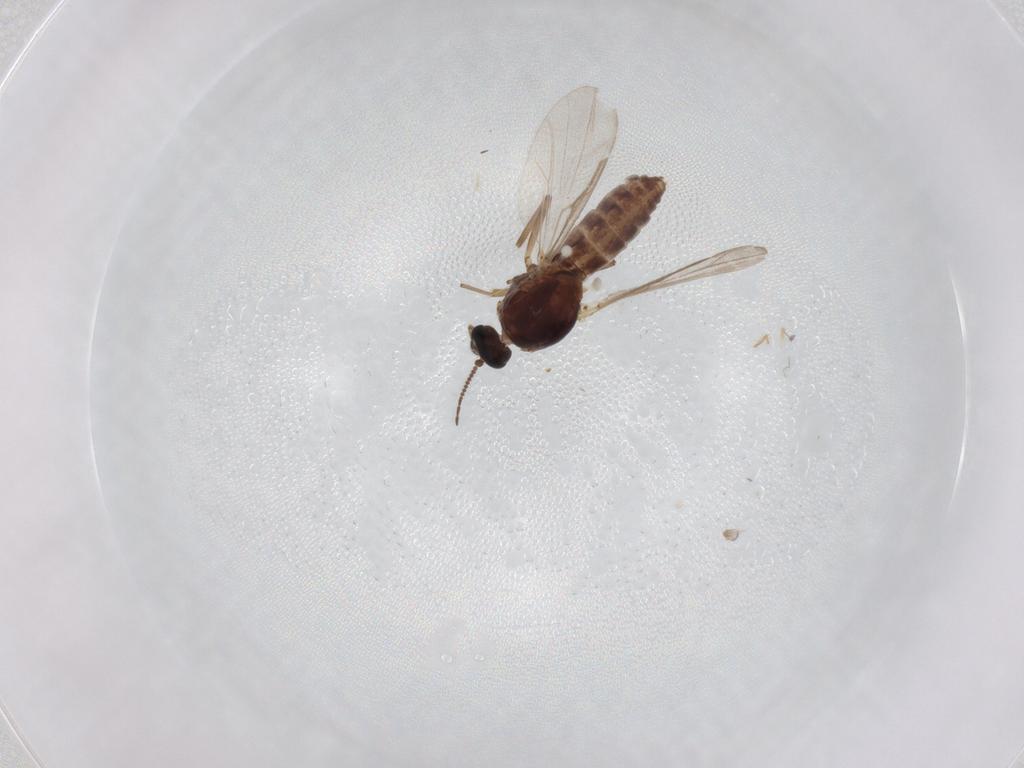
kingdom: Animalia
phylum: Arthropoda
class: Insecta
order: Diptera
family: Ceratopogonidae
